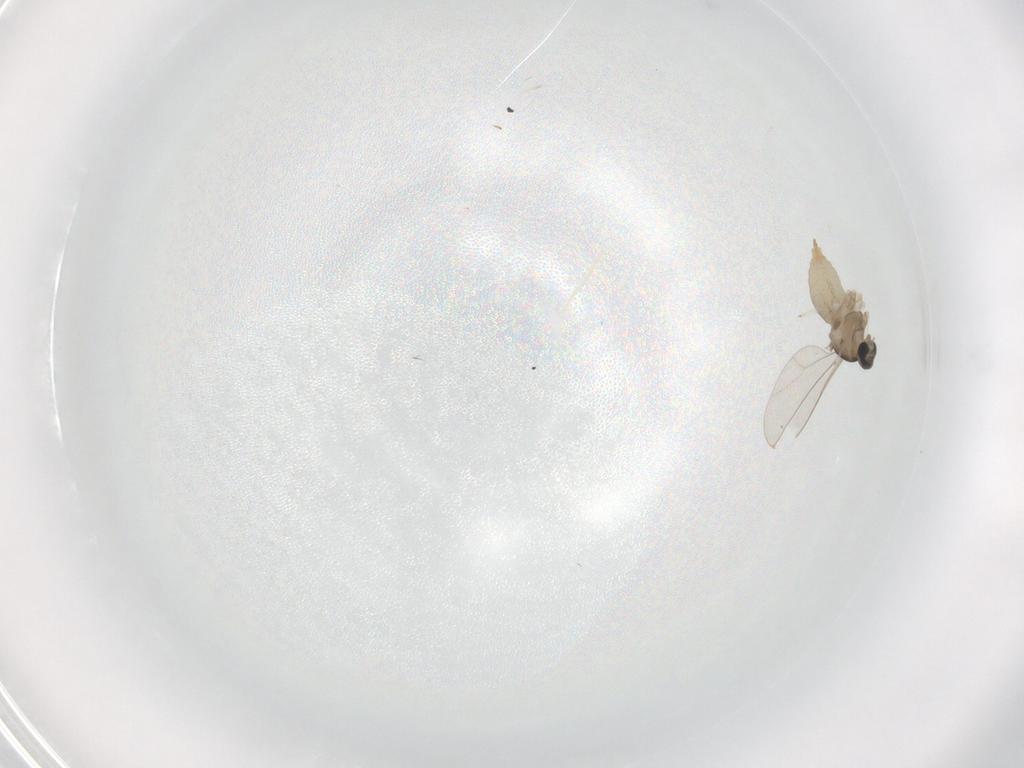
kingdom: Animalia
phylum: Arthropoda
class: Insecta
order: Diptera
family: Cecidomyiidae
